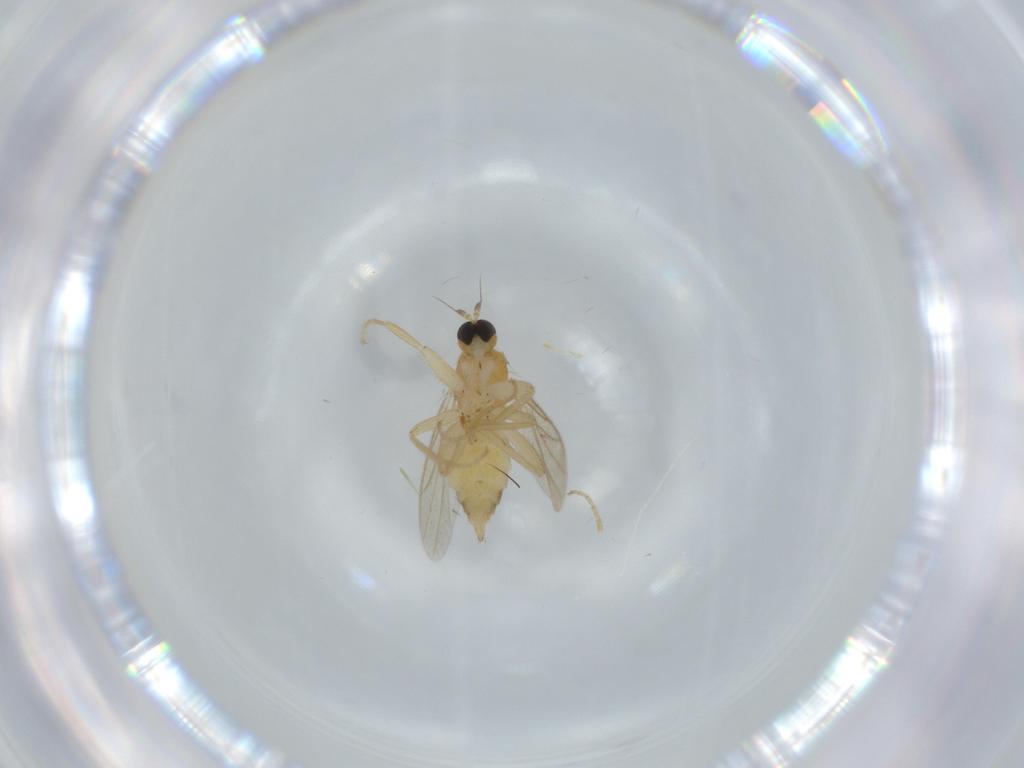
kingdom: Animalia
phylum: Arthropoda
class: Insecta
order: Diptera
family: Hybotidae
